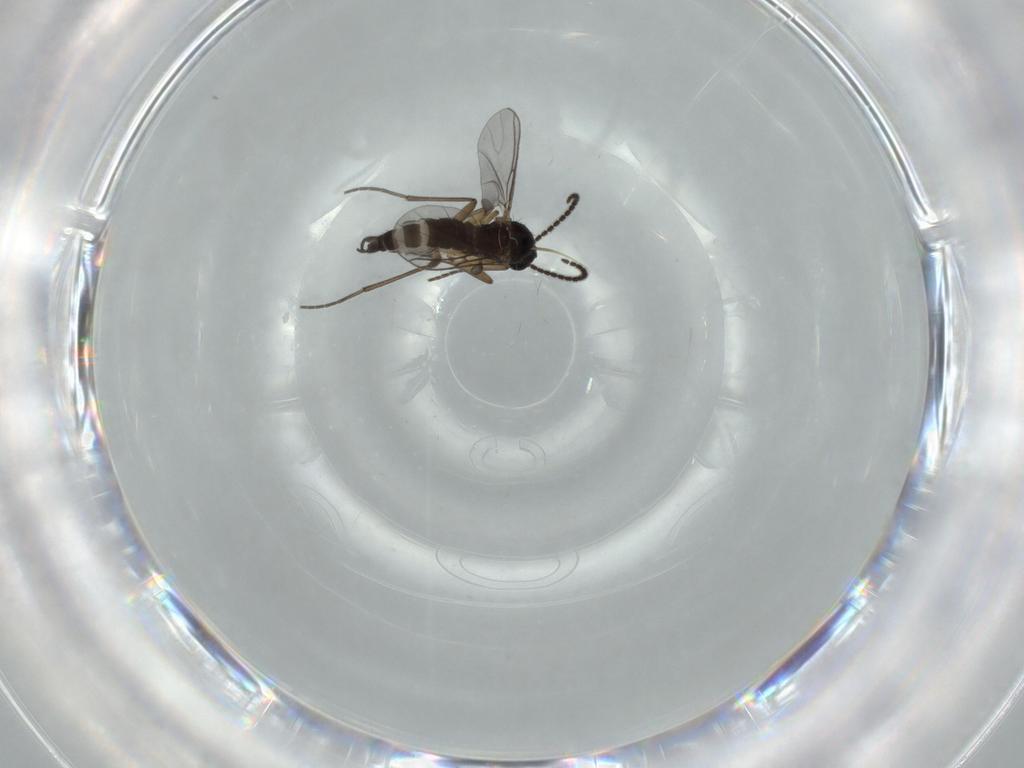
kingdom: Animalia
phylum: Arthropoda
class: Insecta
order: Diptera
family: Sciaridae
